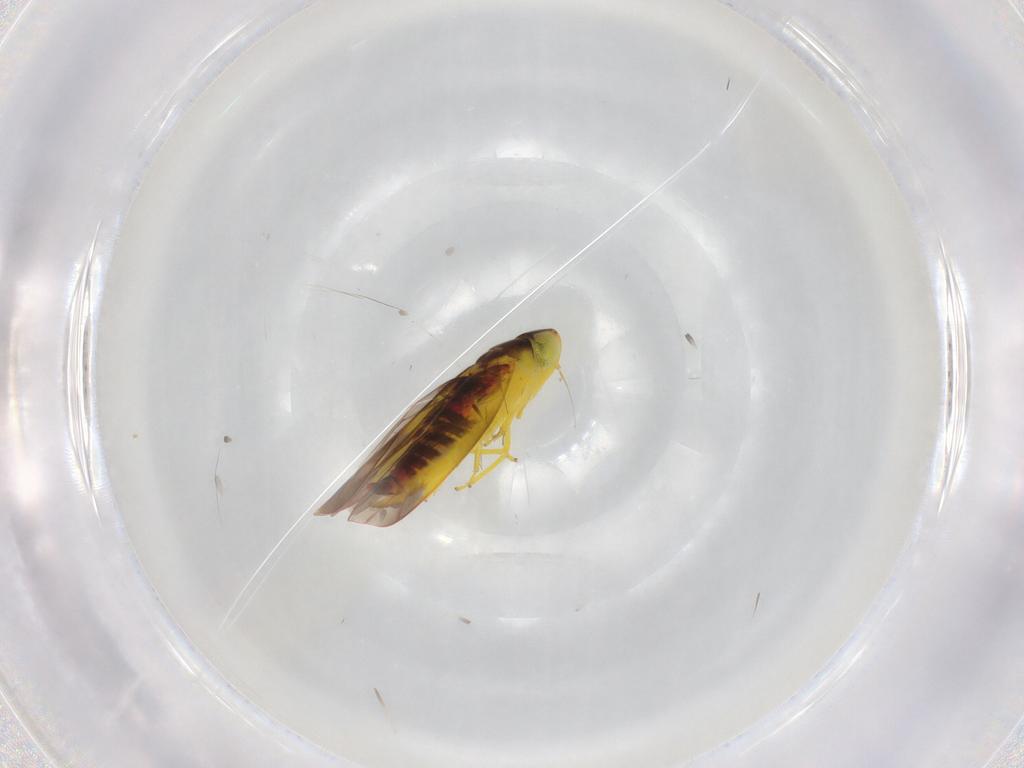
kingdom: Animalia
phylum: Arthropoda
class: Insecta
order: Hemiptera
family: Cicadellidae
